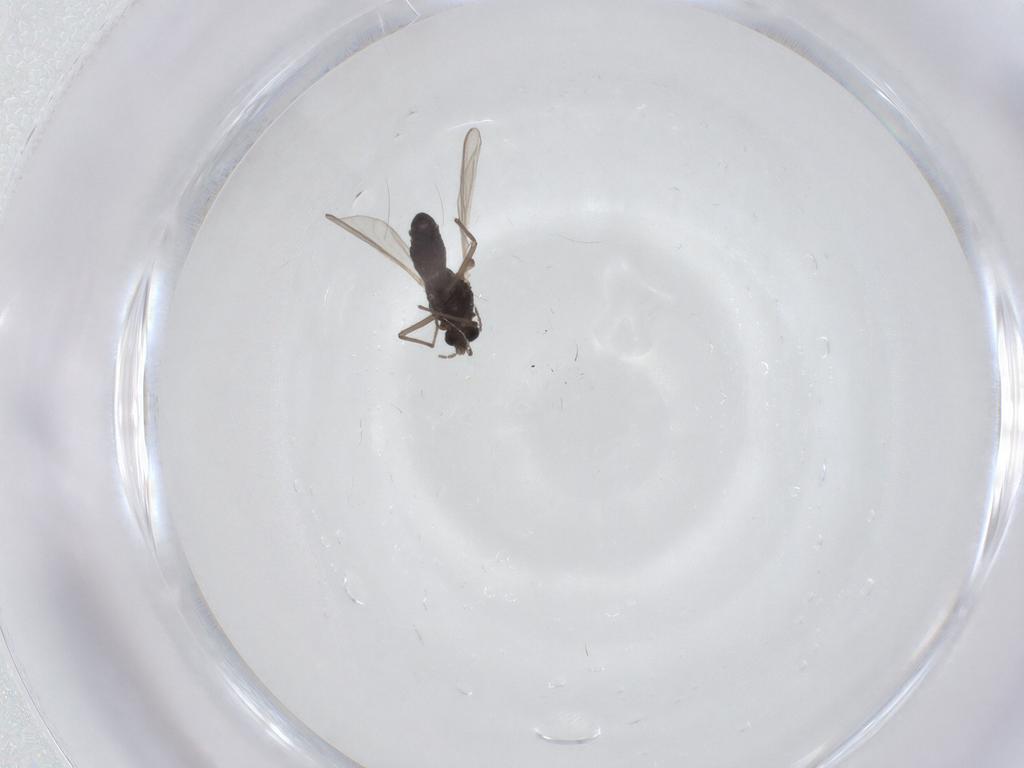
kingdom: Animalia
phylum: Arthropoda
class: Insecta
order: Diptera
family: Chironomidae
